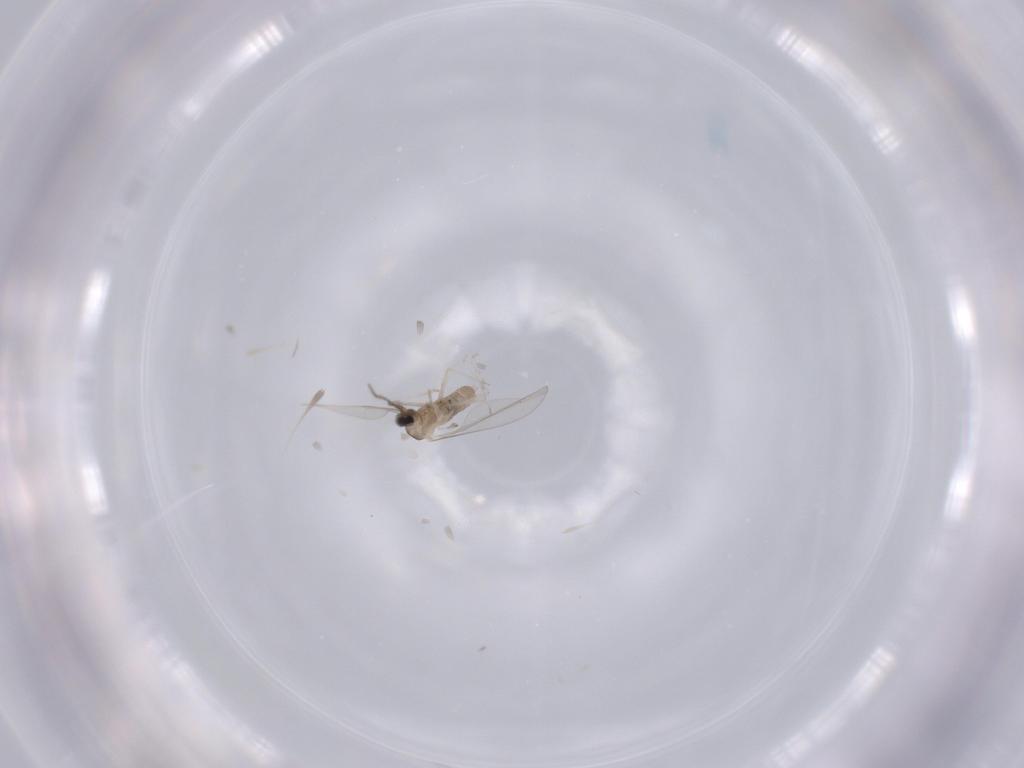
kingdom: Animalia
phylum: Arthropoda
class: Insecta
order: Diptera
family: Cecidomyiidae
